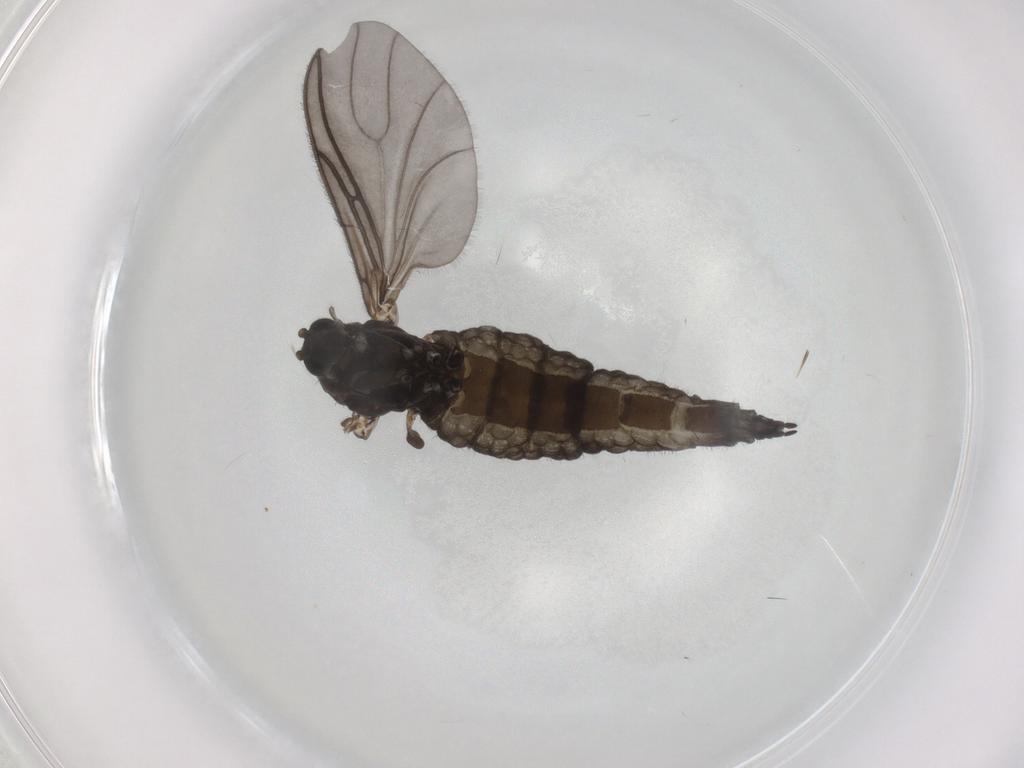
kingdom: Animalia
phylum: Arthropoda
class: Insecta
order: Diptera
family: Sciaridae
